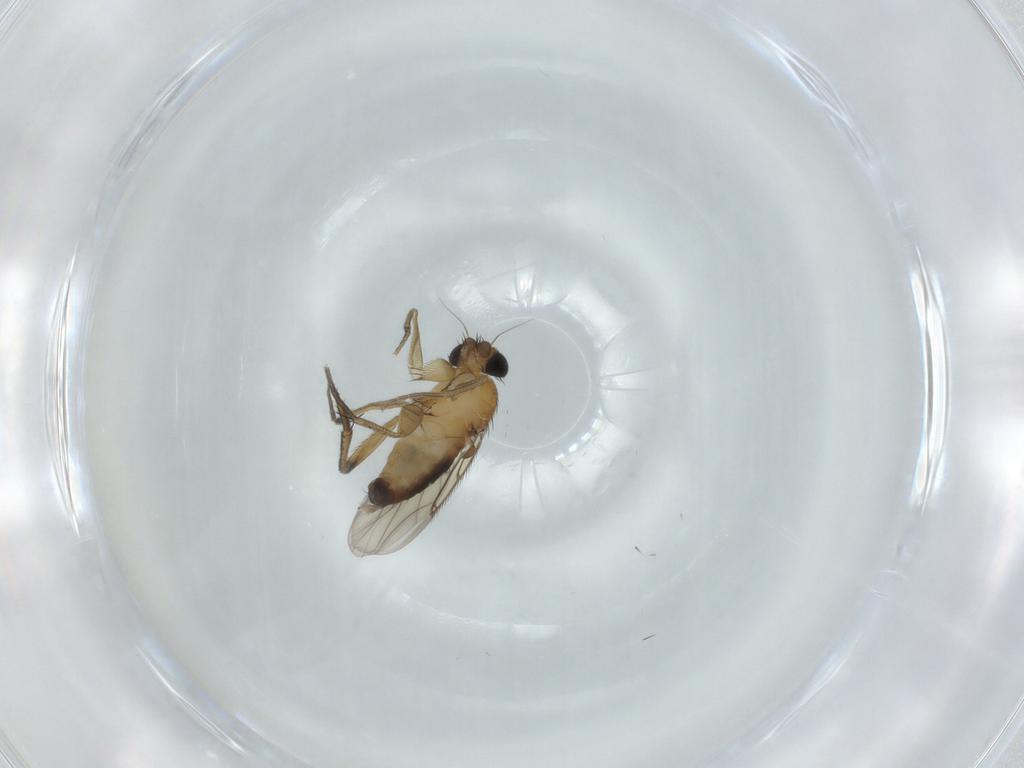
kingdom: Animalia
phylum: Arthropoda
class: Insecta
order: Diptera
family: Phoridae
